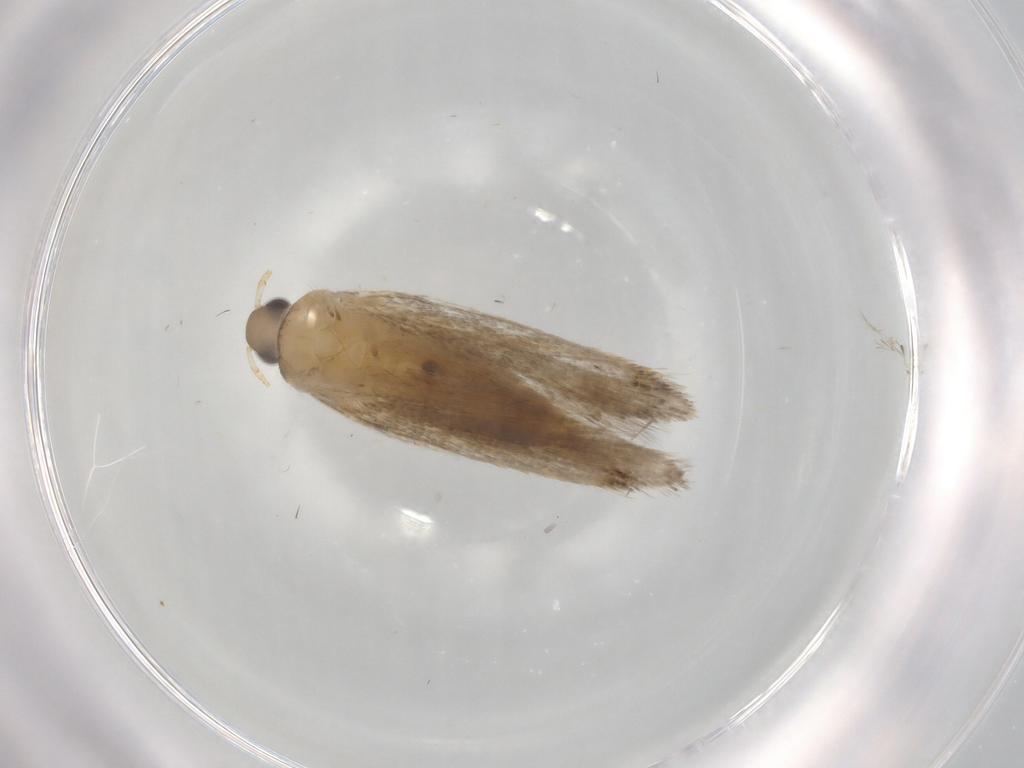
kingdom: Animalia
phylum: Arthropoda
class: Insecta
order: Lepidoptera
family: Autostichidae
